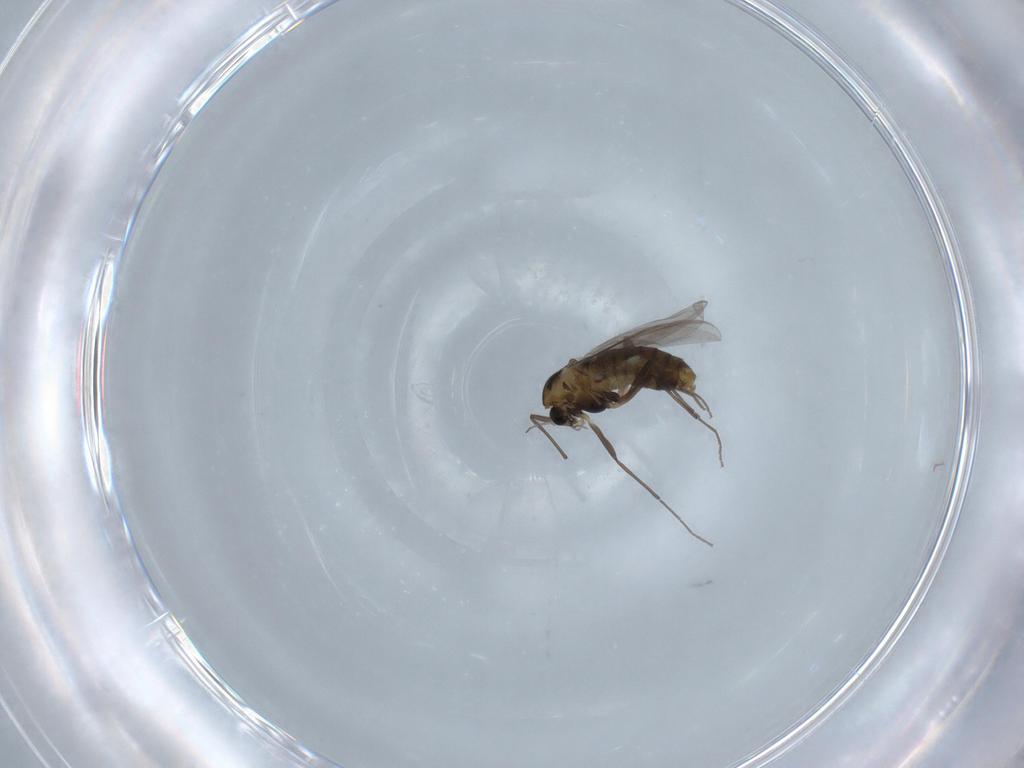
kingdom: Animalia
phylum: Arthropoda
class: Insecta
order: Diptera
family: Chironomidae
